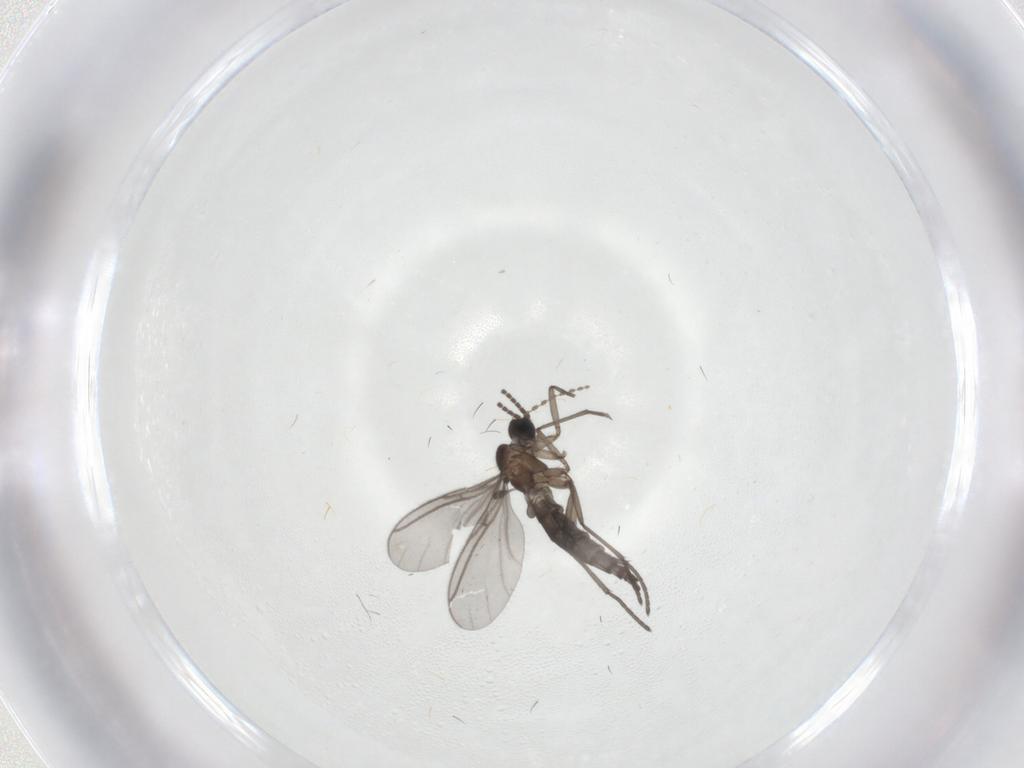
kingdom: Animalia
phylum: Arthropoda
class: Insecta
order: Diptera
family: Cecidomyiidae
